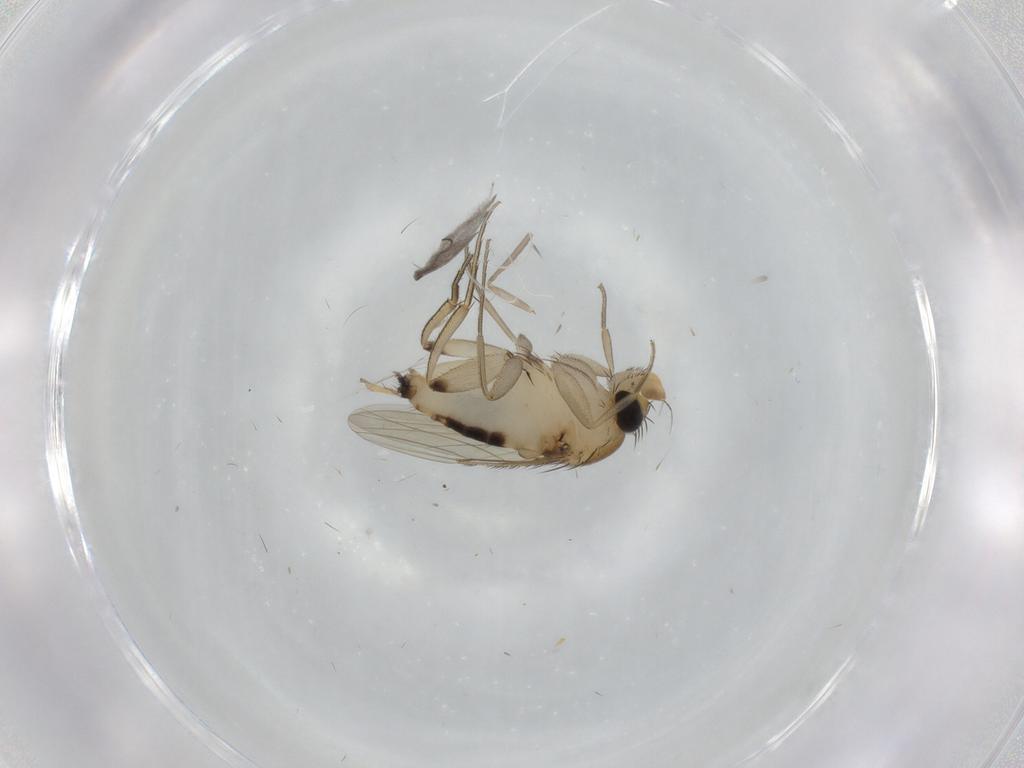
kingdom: Animalia
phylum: Arthropoda
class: Insecta
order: Diptera
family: Phoridae
